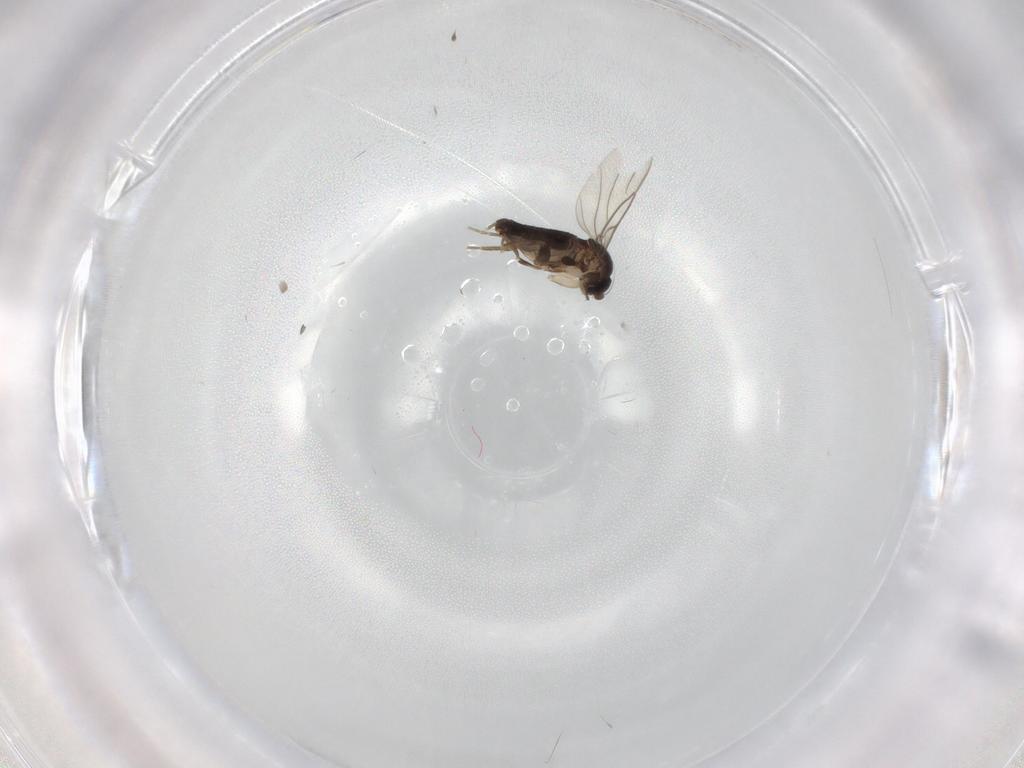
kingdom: Animalia
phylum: Arthropoda
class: Insecta
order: Diptera
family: Phoridae
